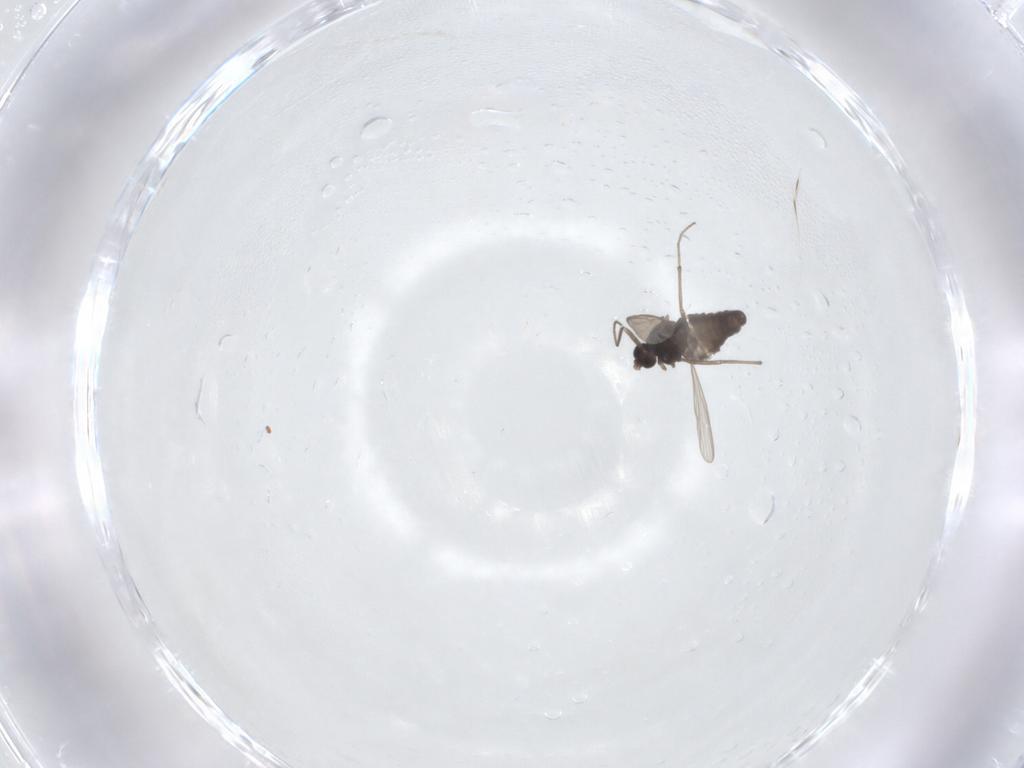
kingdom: Animalia
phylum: Arthropoda
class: Insecta
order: Diptera
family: Chironomidae
